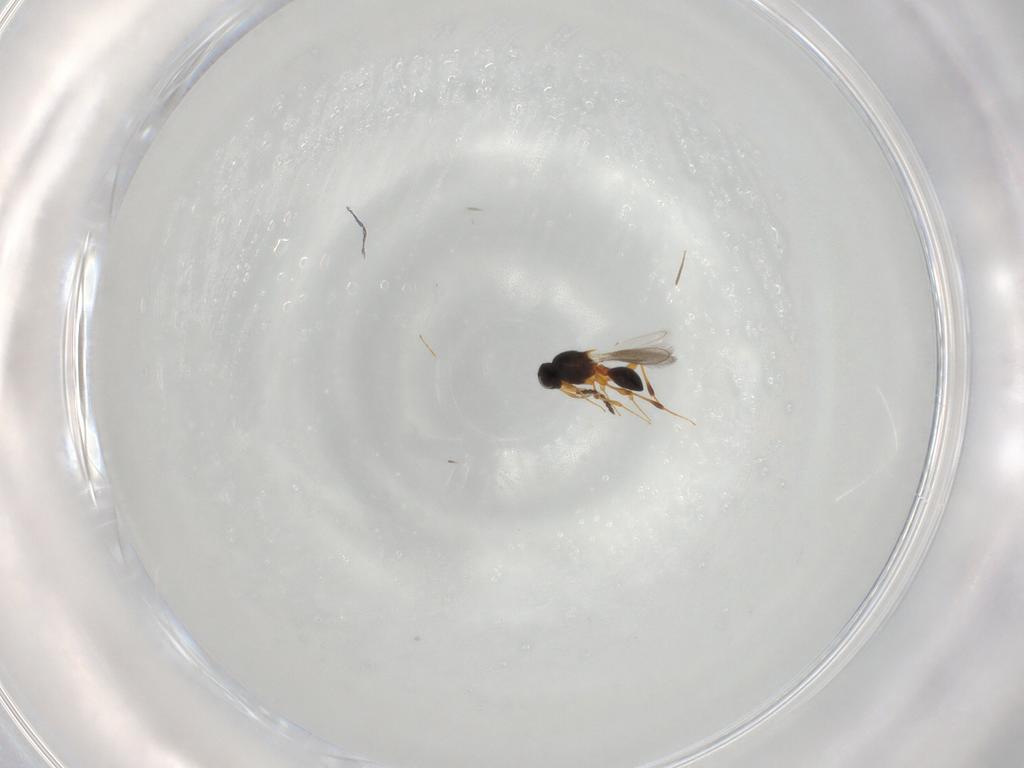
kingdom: Animalia
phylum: Arthropoda
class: Insecta
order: Hymenoptera
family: Platygastridae
